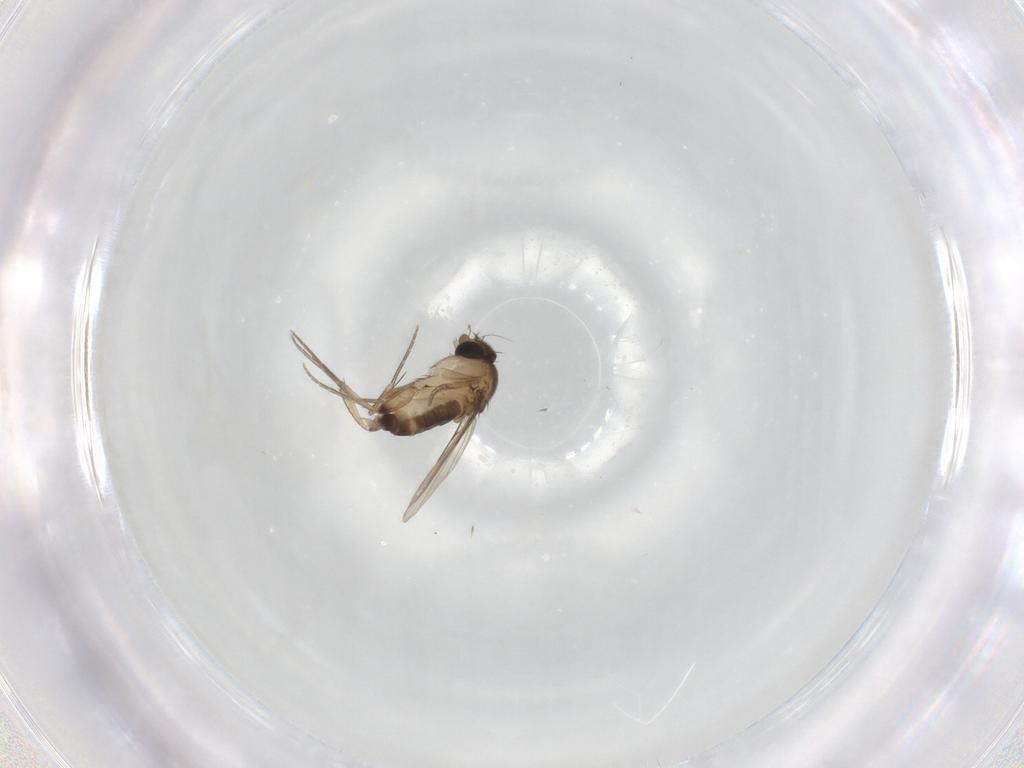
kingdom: Animalia
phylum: Arthropoda
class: Insecta
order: Diptera
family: Phoridae
